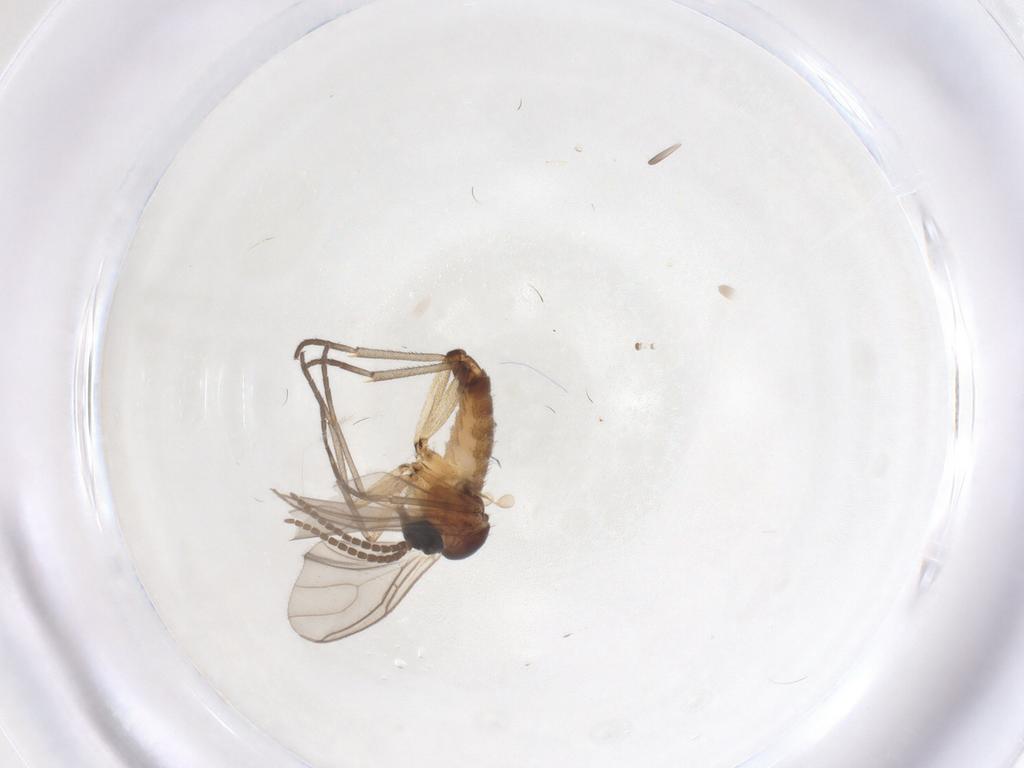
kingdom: Animalia
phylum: Arthropoda
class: Insecta
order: Diptera
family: Sciaridae
